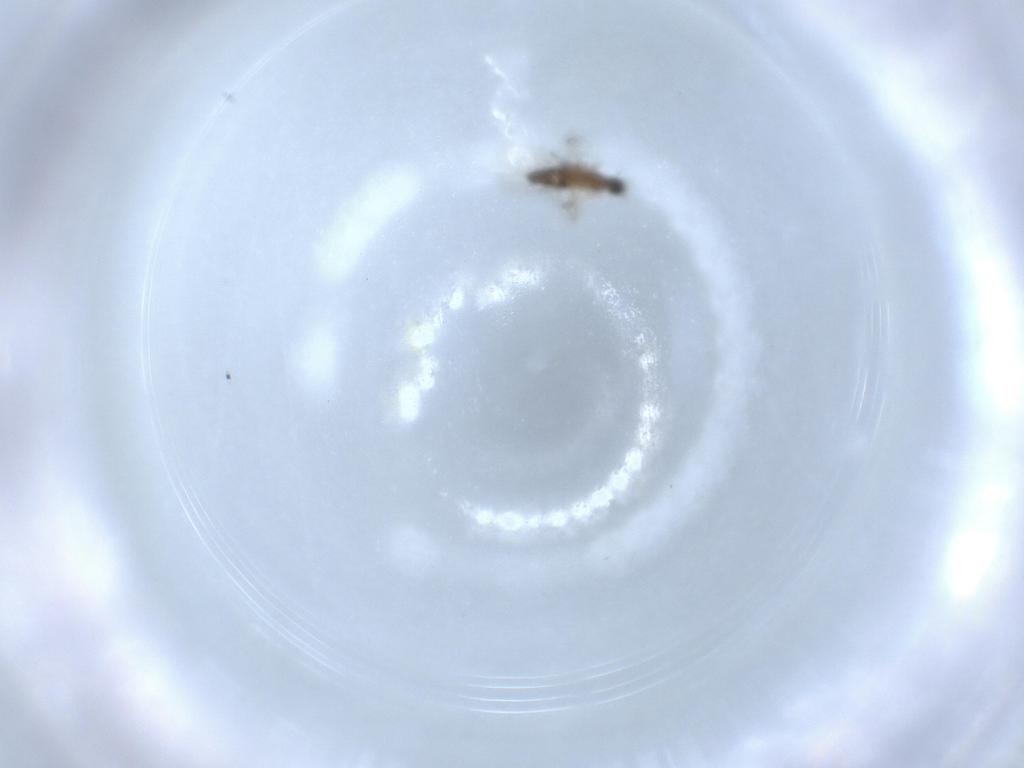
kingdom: Animalia
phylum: Arthropoda
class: Insecta
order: Diptera
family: Phoridae
